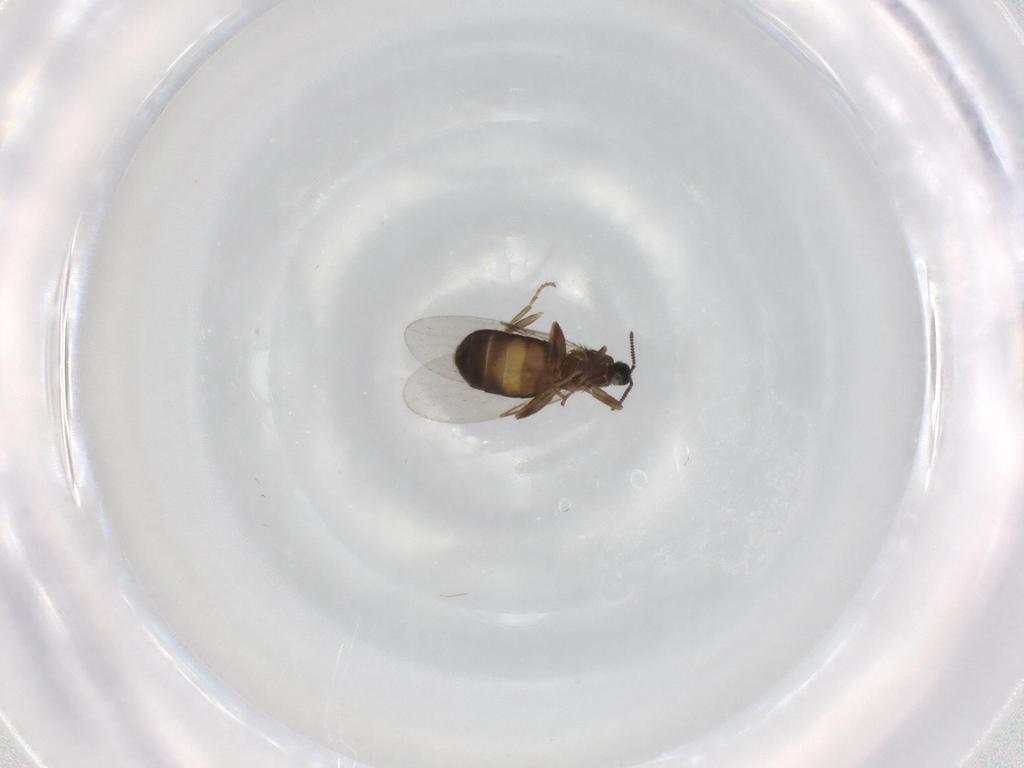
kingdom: Animalia
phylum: Arthropoda
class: Insecta
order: Diptera
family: Scatopsidae
